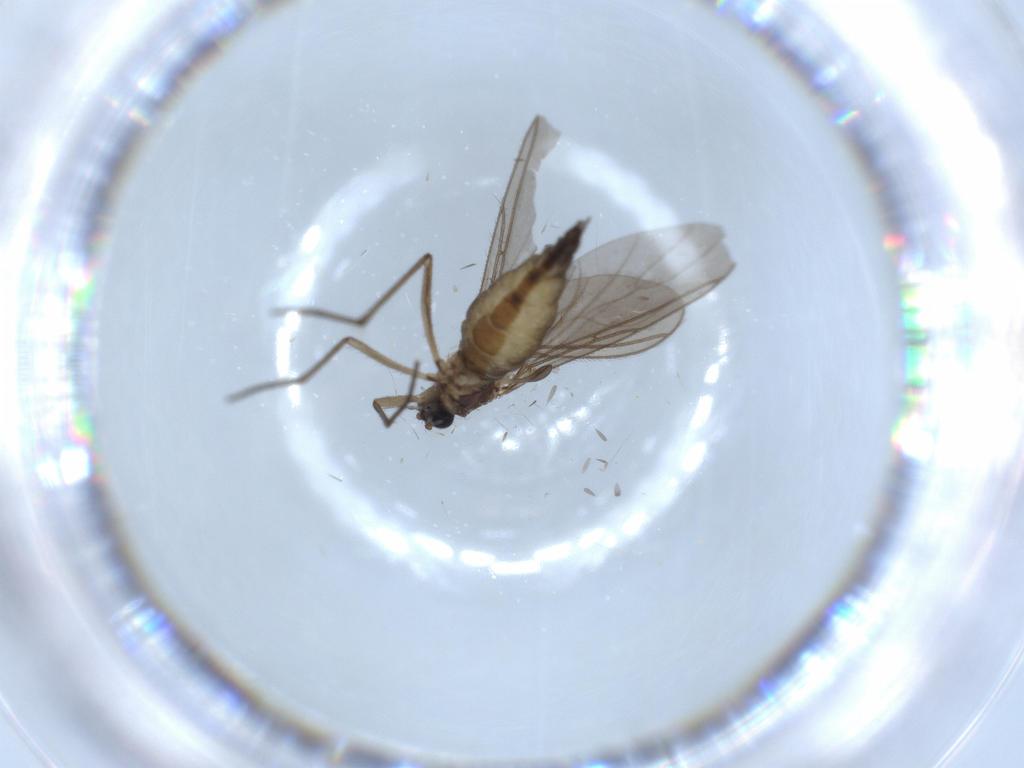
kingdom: Animalia
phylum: Arthropoda
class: Insecta
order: Diptera
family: Sciaridae
